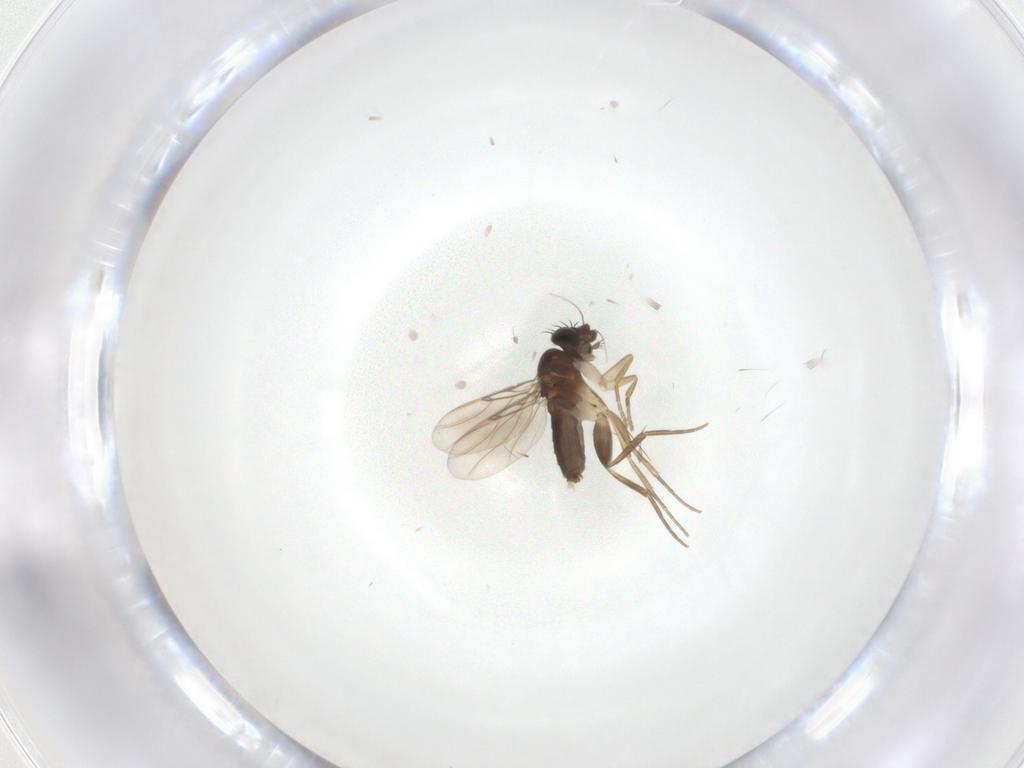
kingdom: Animalia
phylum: Arthropoda
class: Insecta
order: Diptera
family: Phoridae
